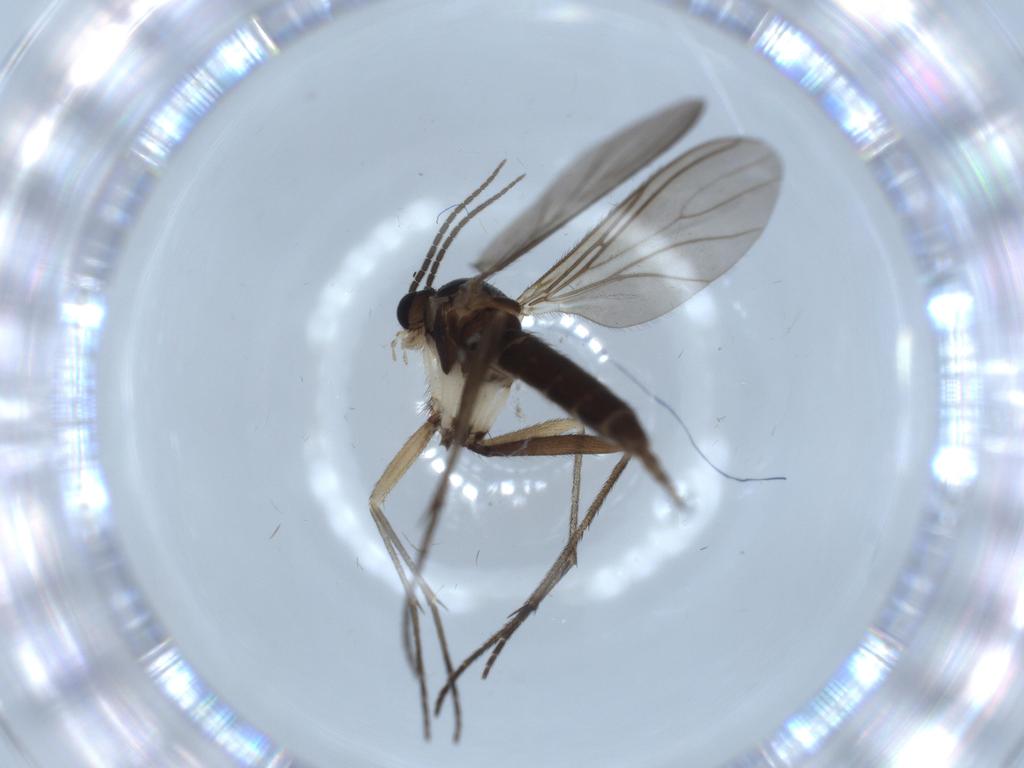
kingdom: Animalia
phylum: Arthropoda
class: Insecta
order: Diptera
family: Sciaridae
